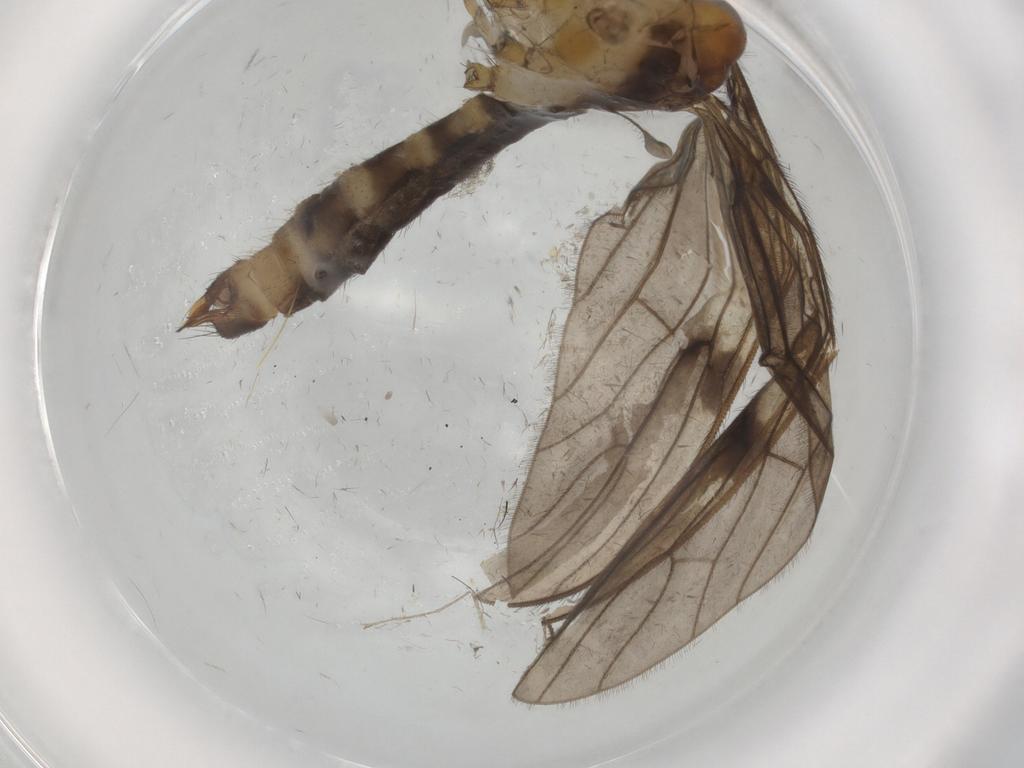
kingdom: Animalia
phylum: Arthropoda
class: Insecta
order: Diptera
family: Limoniidae
